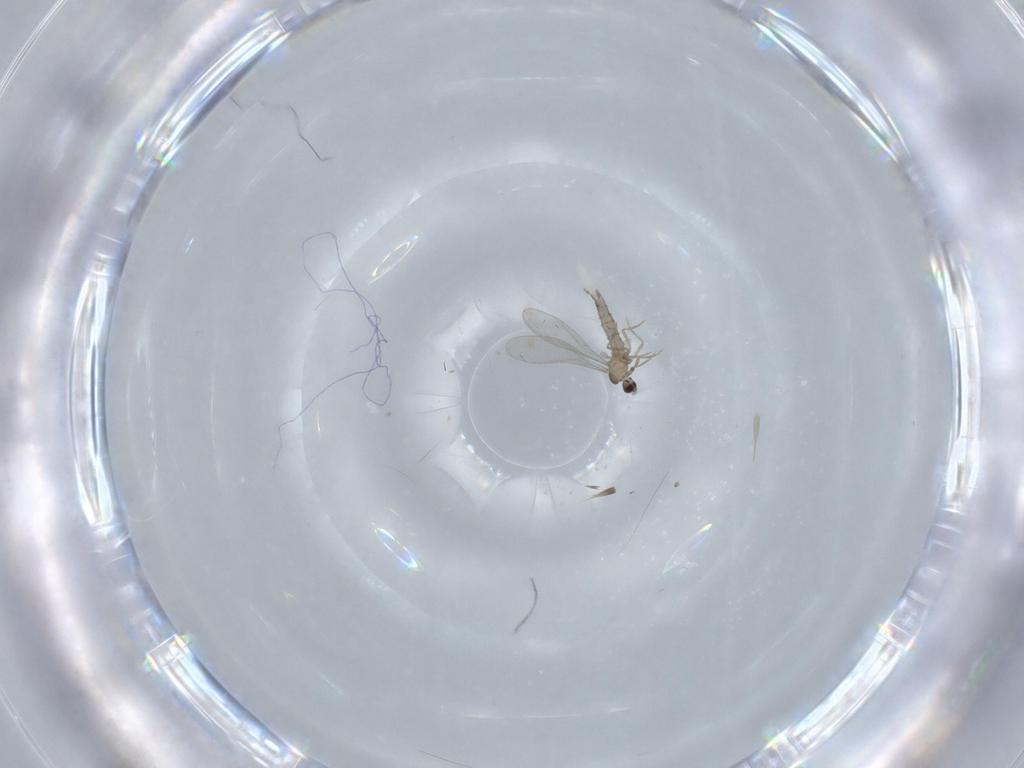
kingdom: Animalia
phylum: Arthropoda
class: Insecta
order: Diptera
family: Cecidomyiidae
